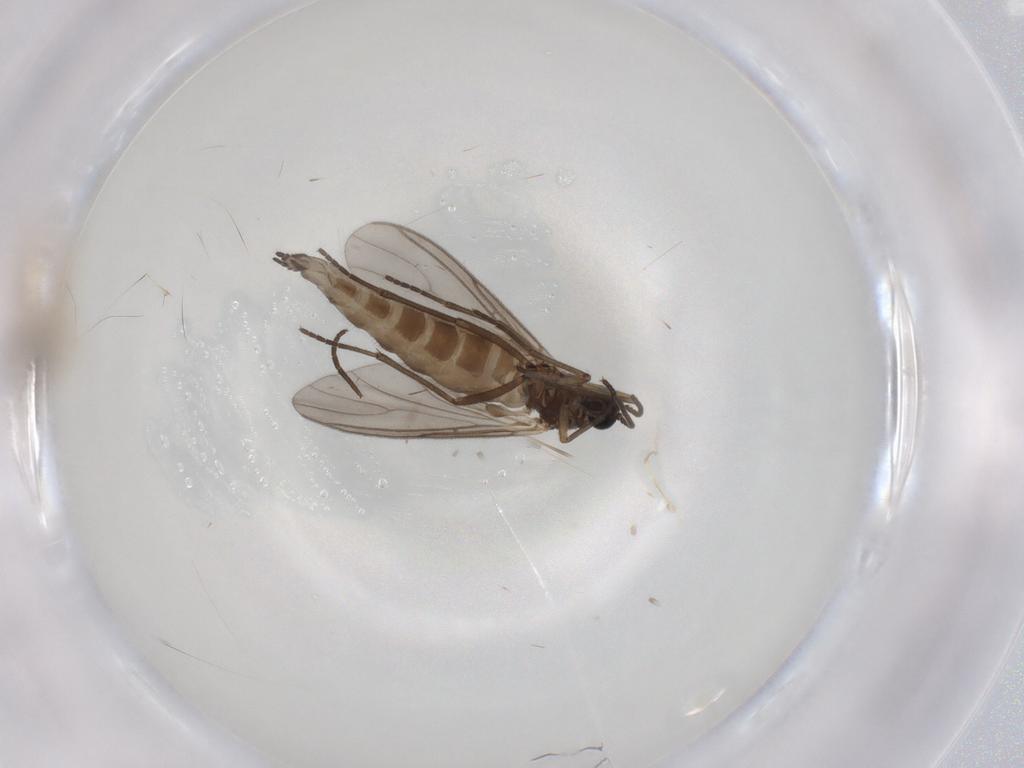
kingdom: Animalia
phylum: Arthropoda
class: Insecta
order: Diptera
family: Cecidomyiidae
